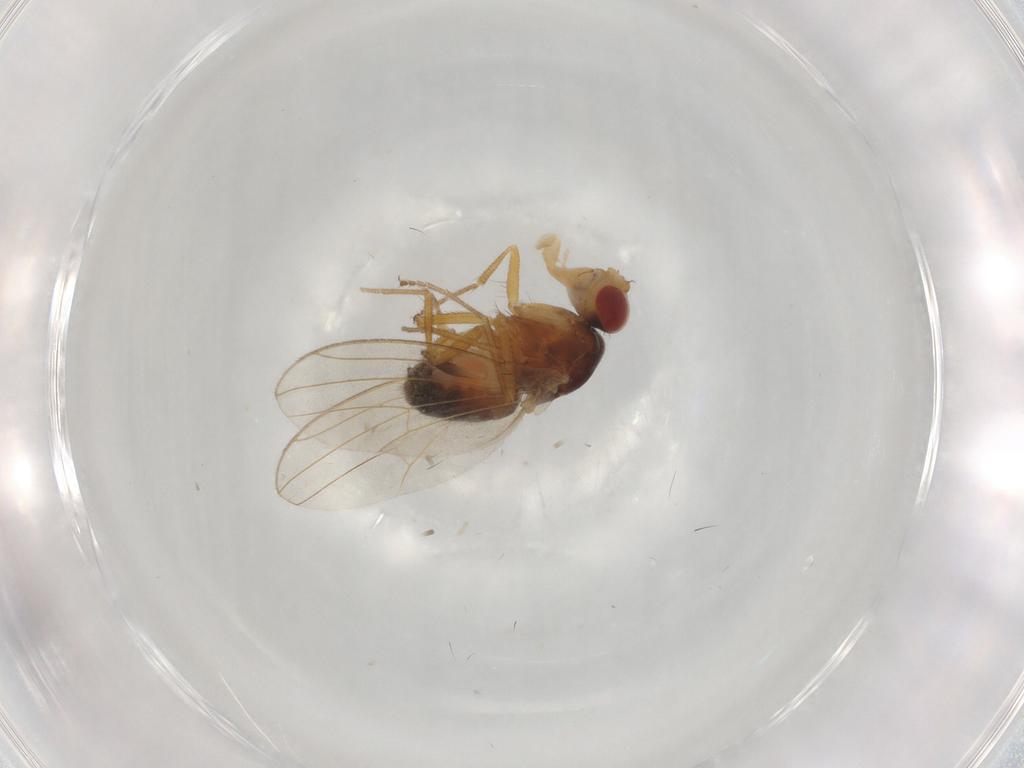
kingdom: Animalia
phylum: Arthropoda
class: Insecta
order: Diptera
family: Drosophilidae
